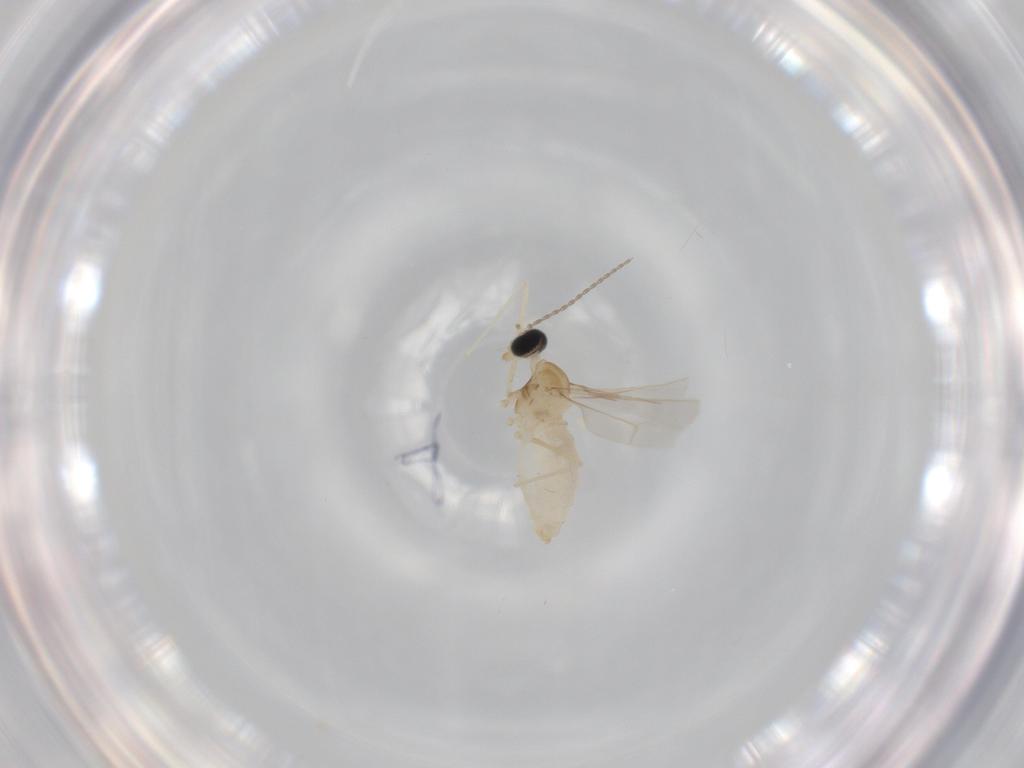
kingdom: Animalia
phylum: Arthropoda
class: Insecta
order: Diptera
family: Cecidomyiidae
